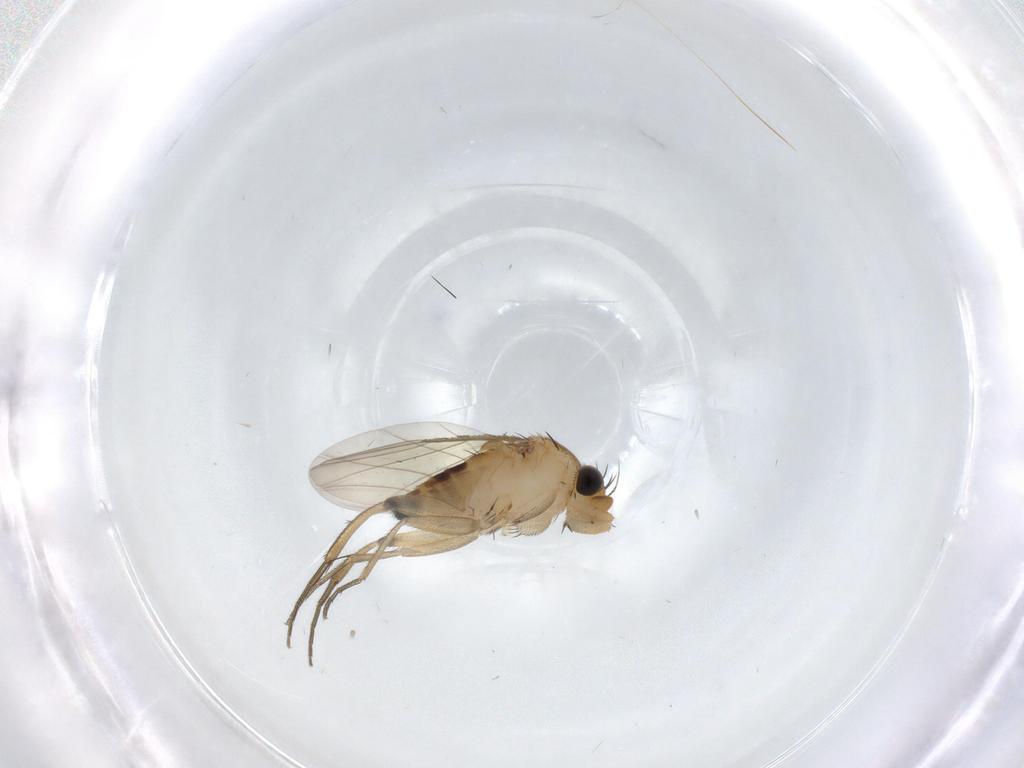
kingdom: Animalia
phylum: Arthropoda
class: Insecta
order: Diptera
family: Phoridae
